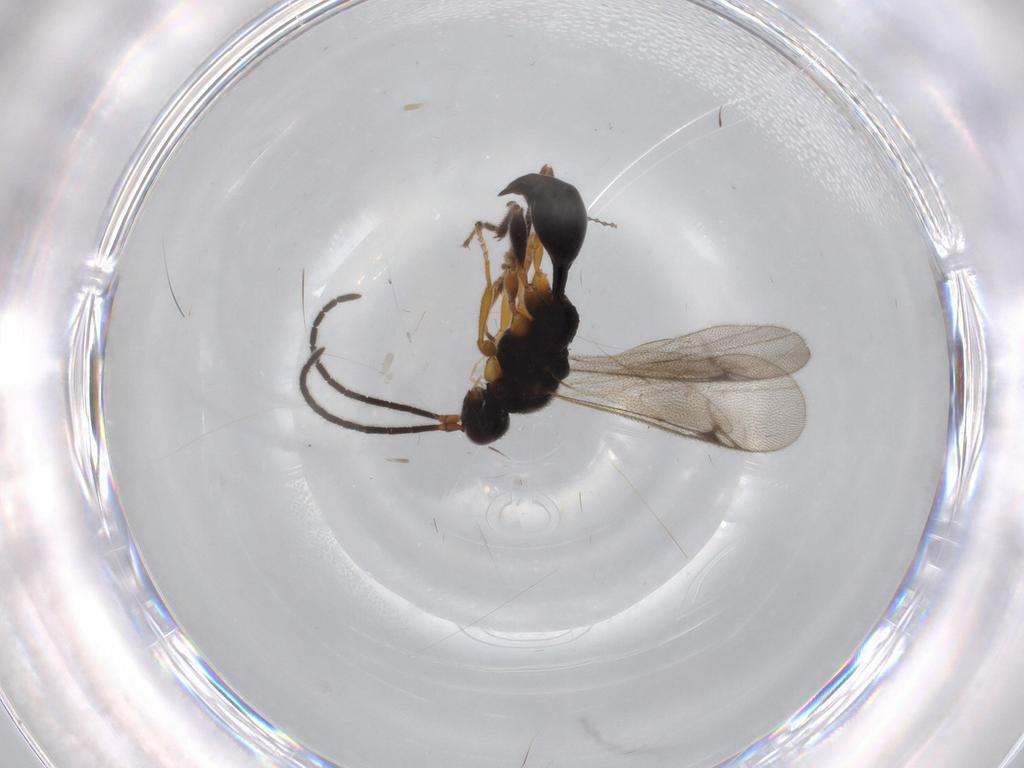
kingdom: Animalia
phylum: Arthropoda
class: Insecta
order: Hymenoptera
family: Proctotrupidae
